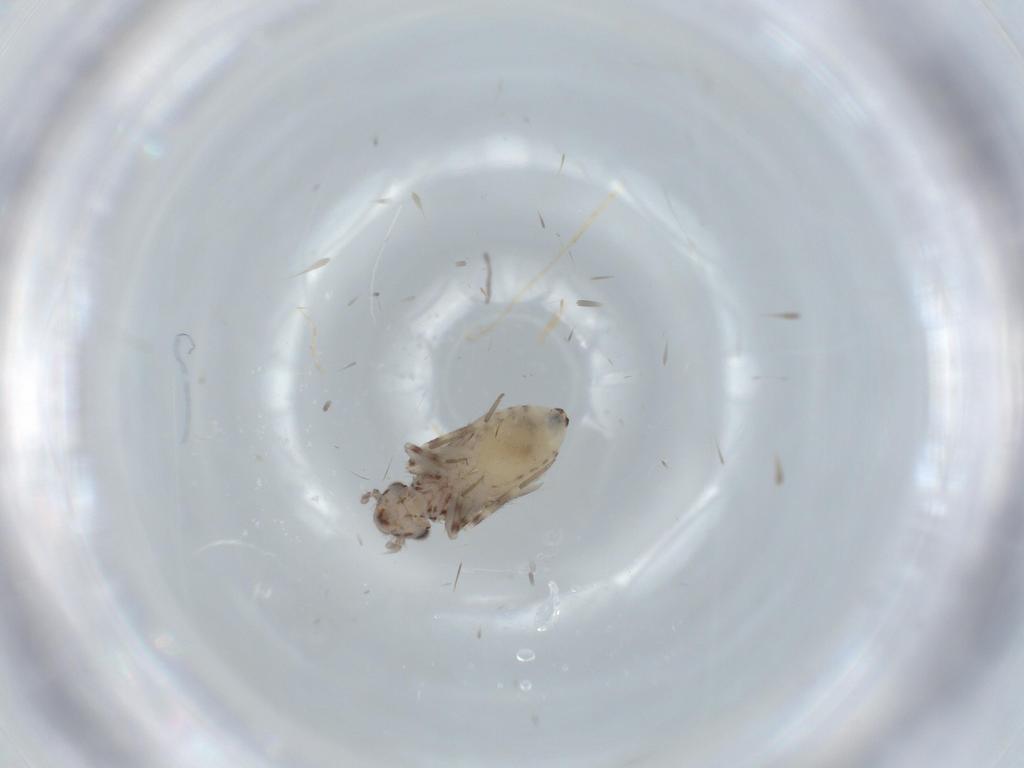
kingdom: Animalia
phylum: Arthropoda
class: Insecta
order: Psocodea
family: Lepidopsocidae
